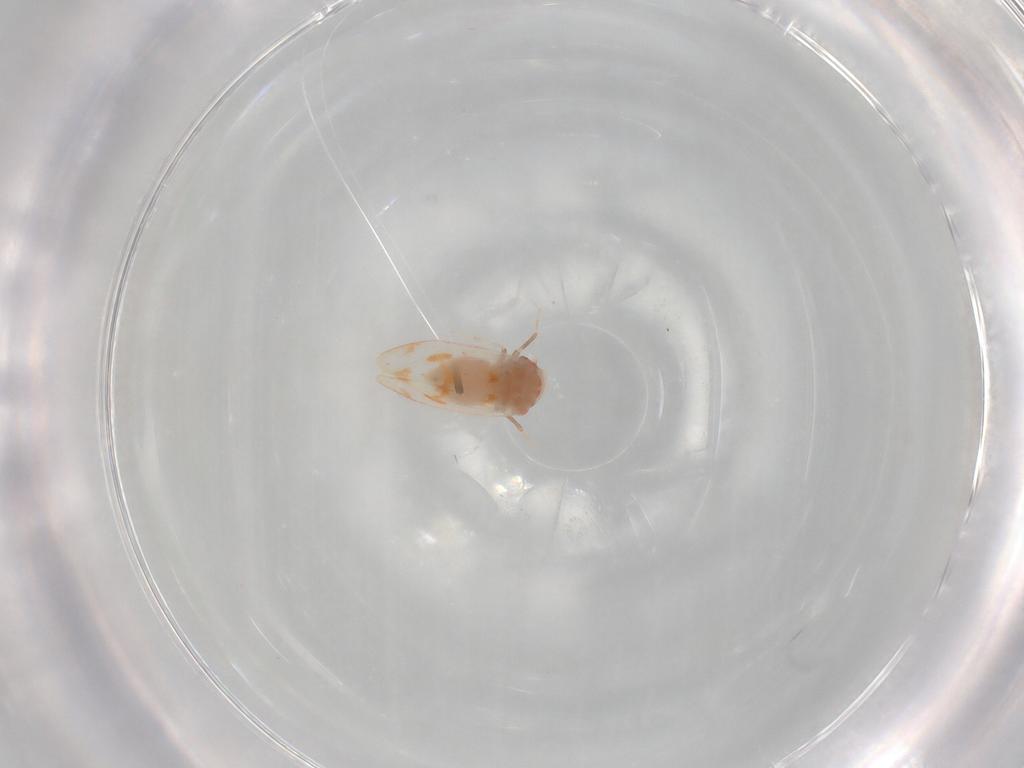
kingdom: Animalia
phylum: Arthropoda
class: Insecta
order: Hemiptera
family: Aleyrodidae
